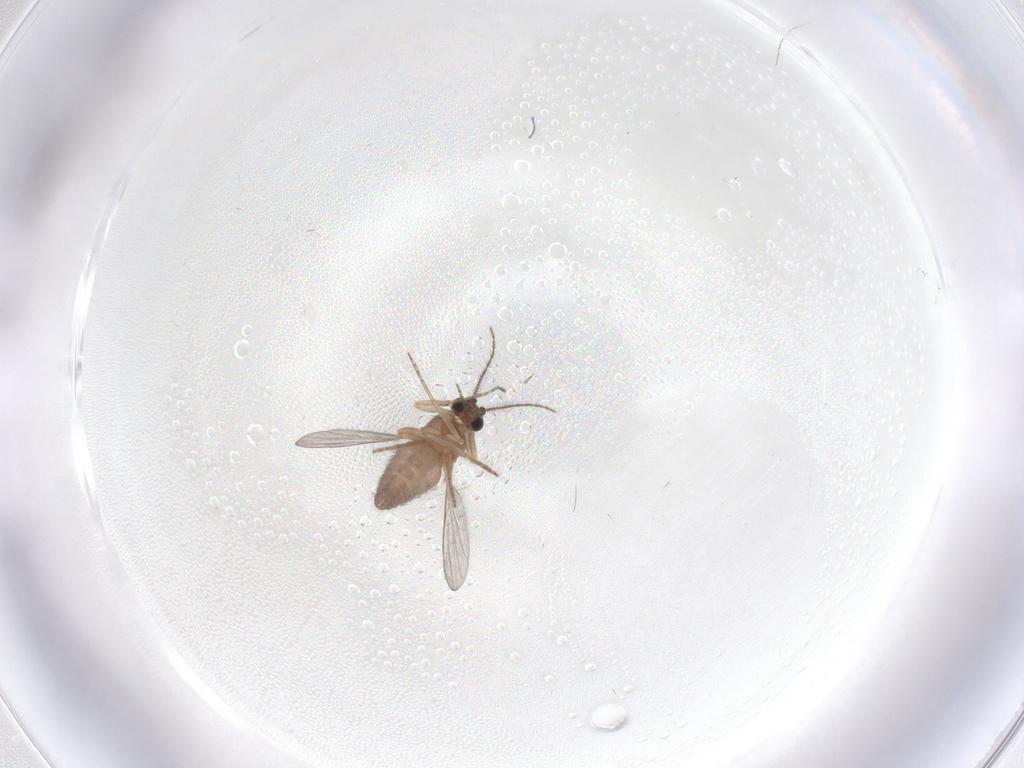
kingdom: Animalia
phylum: Arthropoda
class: Insecta
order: Diptera
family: Ceratopogonidae
